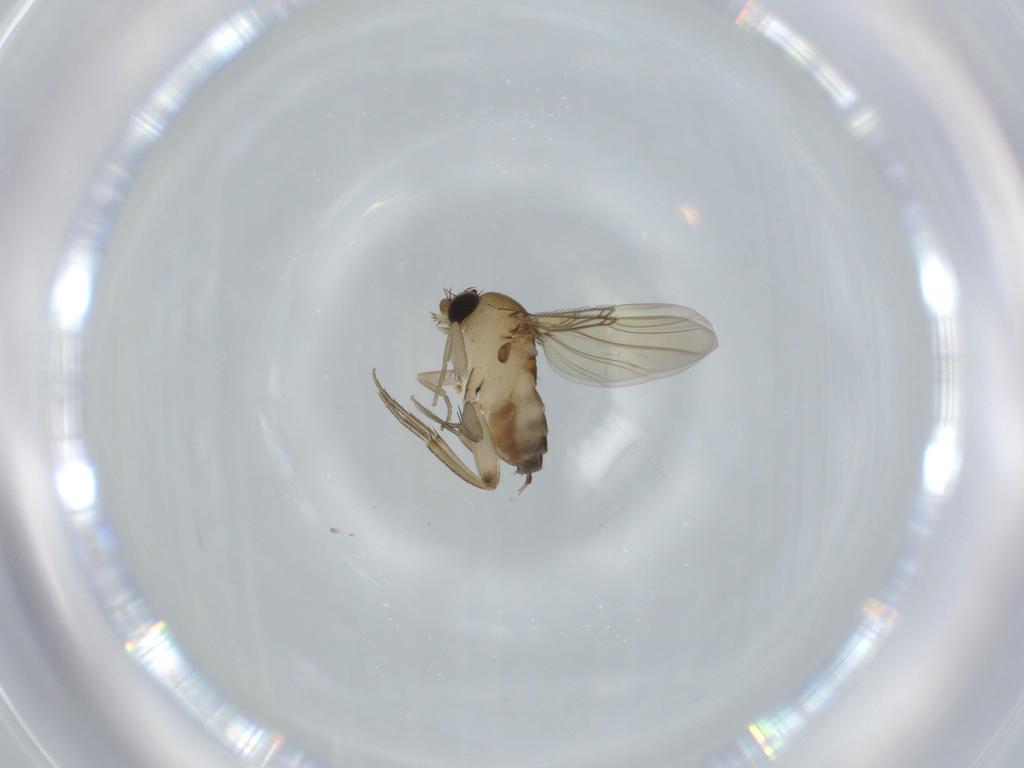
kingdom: Animalia
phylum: Arthropoda
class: Insecta
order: Diptera
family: Phoridae
